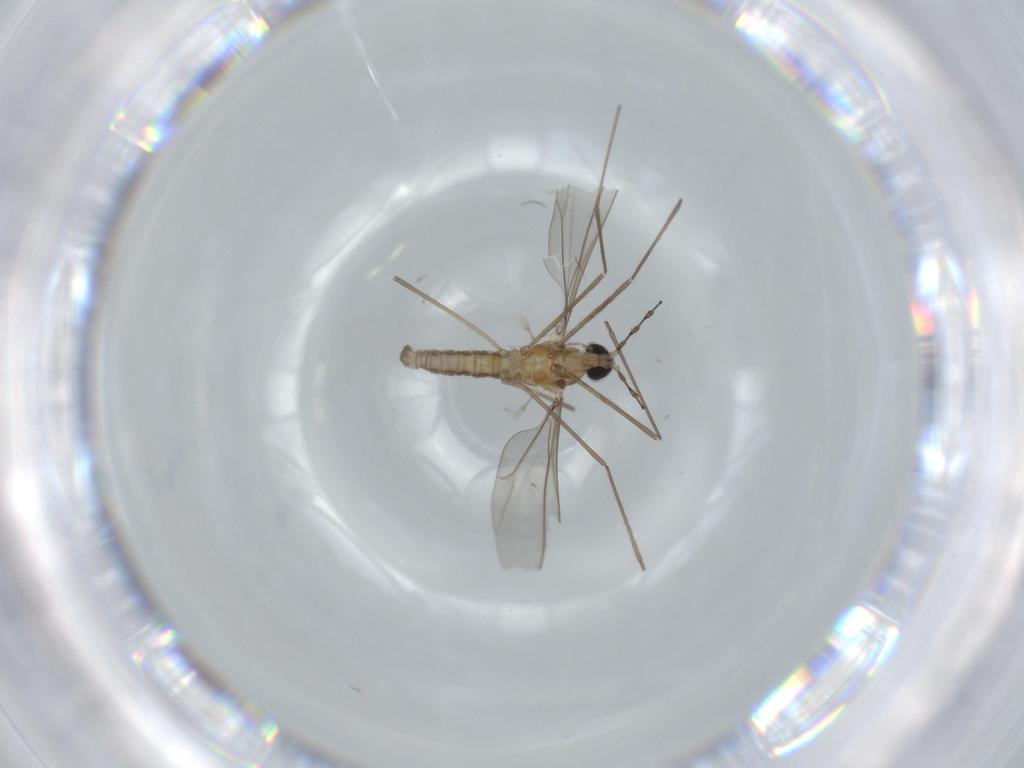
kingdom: Animalia
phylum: Arthropoda
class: Insecta
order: Diptera
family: Cecidomyiidae
